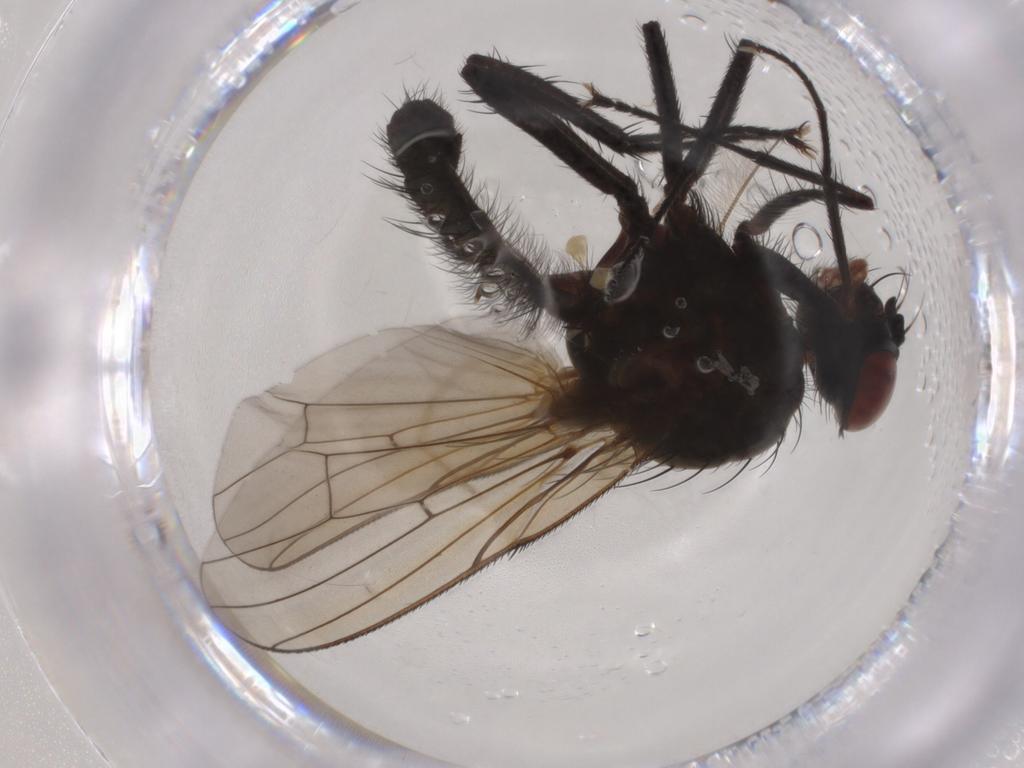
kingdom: Animalia
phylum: Arthropoda
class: Insecta
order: Diptera
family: Anthomyiidae
